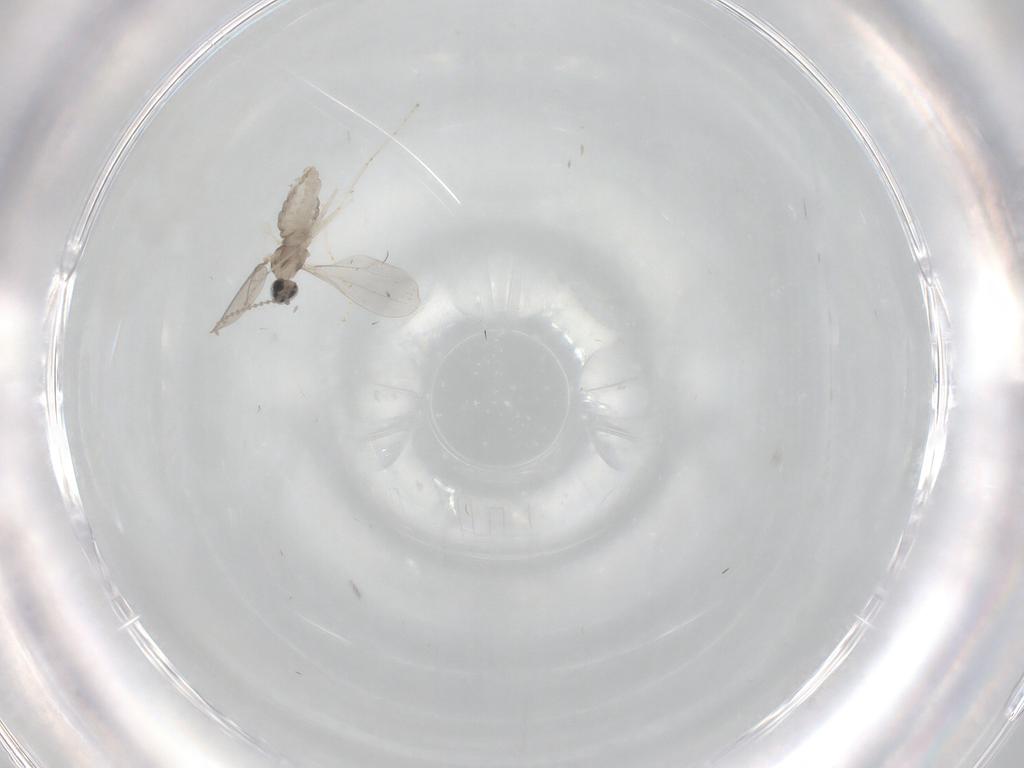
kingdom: Animalia
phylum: Arthropoda
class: Insecta
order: Diptera
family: Cecidomyiidae
